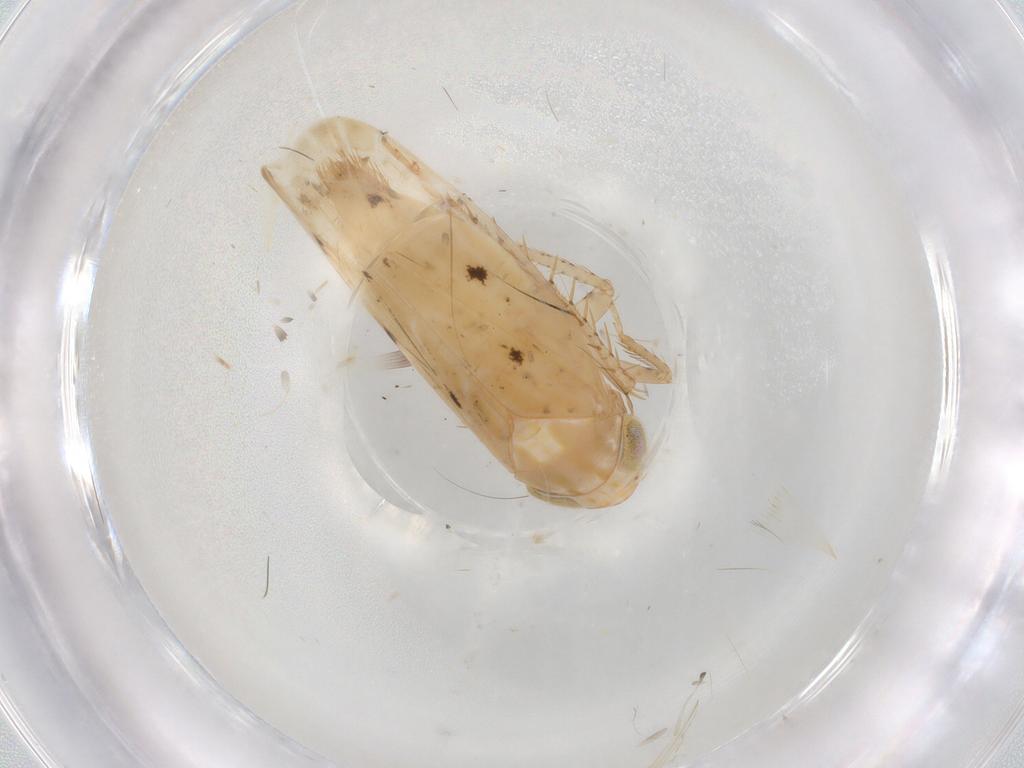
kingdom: Animalia
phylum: Arthropoda
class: Insecta
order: Hemiptera
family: Cicadellidae
